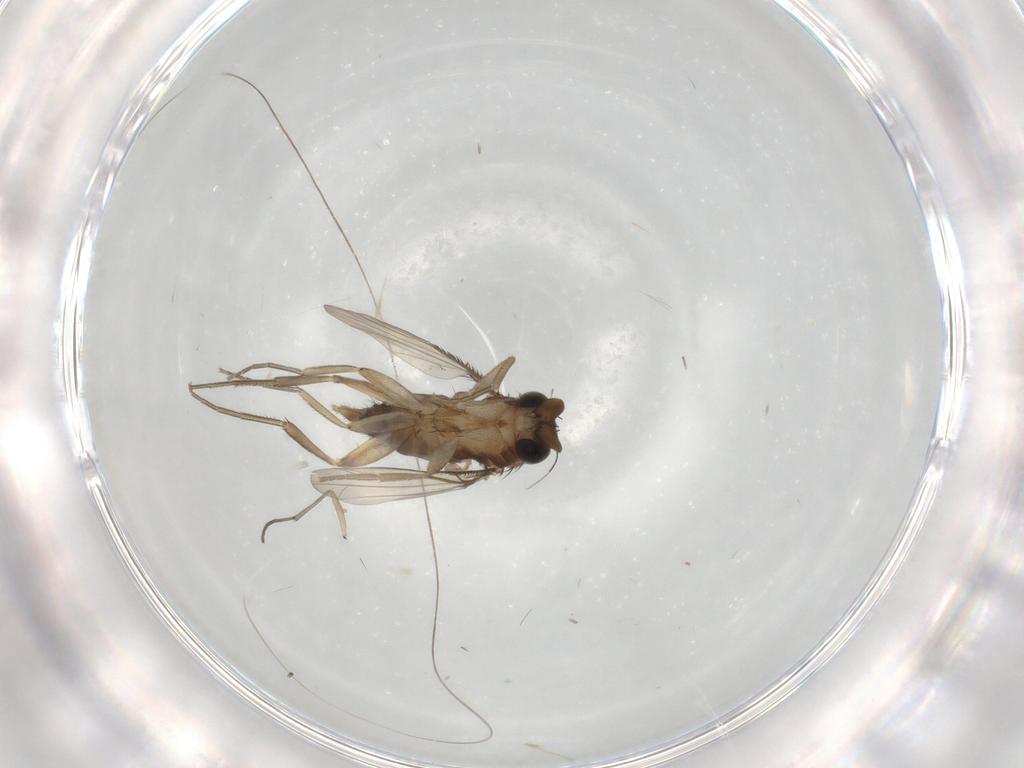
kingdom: Animalia
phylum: Arthropoda
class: Insecta
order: Diptera
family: Phoridae
